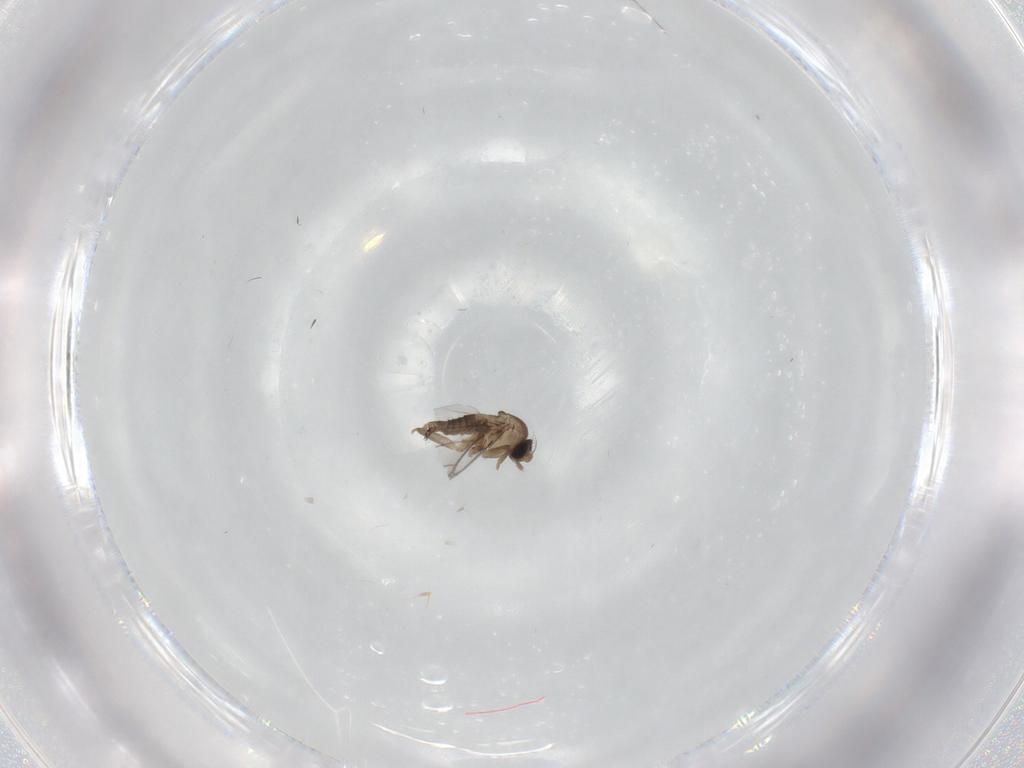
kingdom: Animalia
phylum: Arthropoda
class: Insecta
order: Diptera
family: Phoridae
